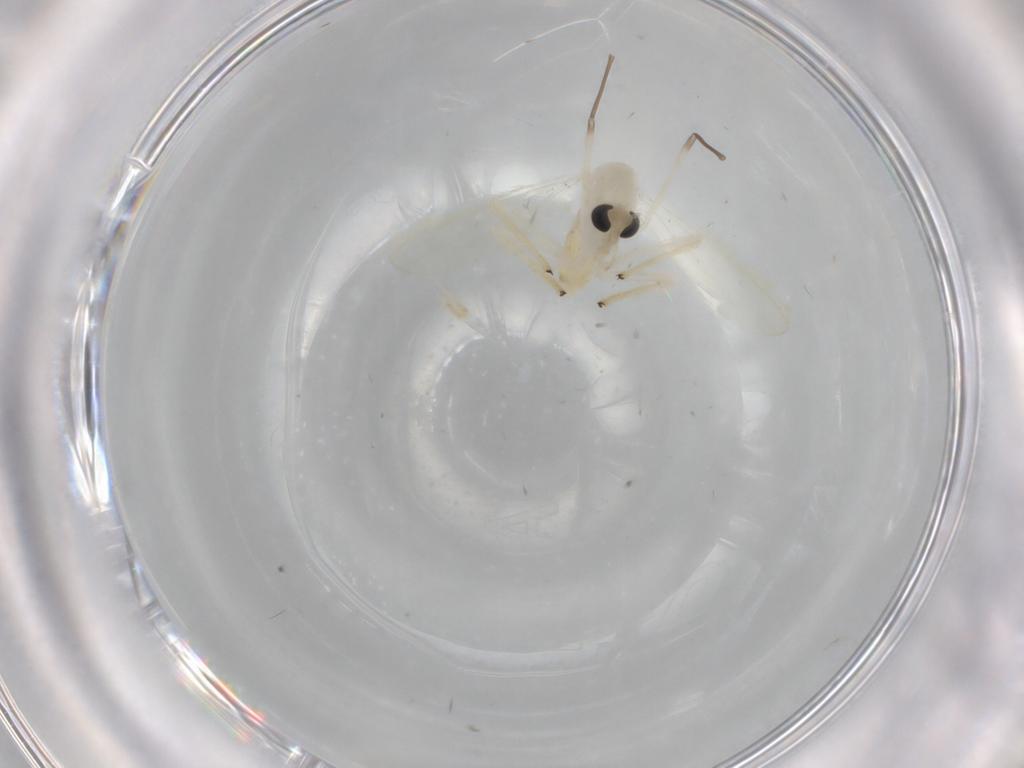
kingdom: Animalia
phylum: Arthropoda
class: Insecta
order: Diptera
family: Chironomidae
